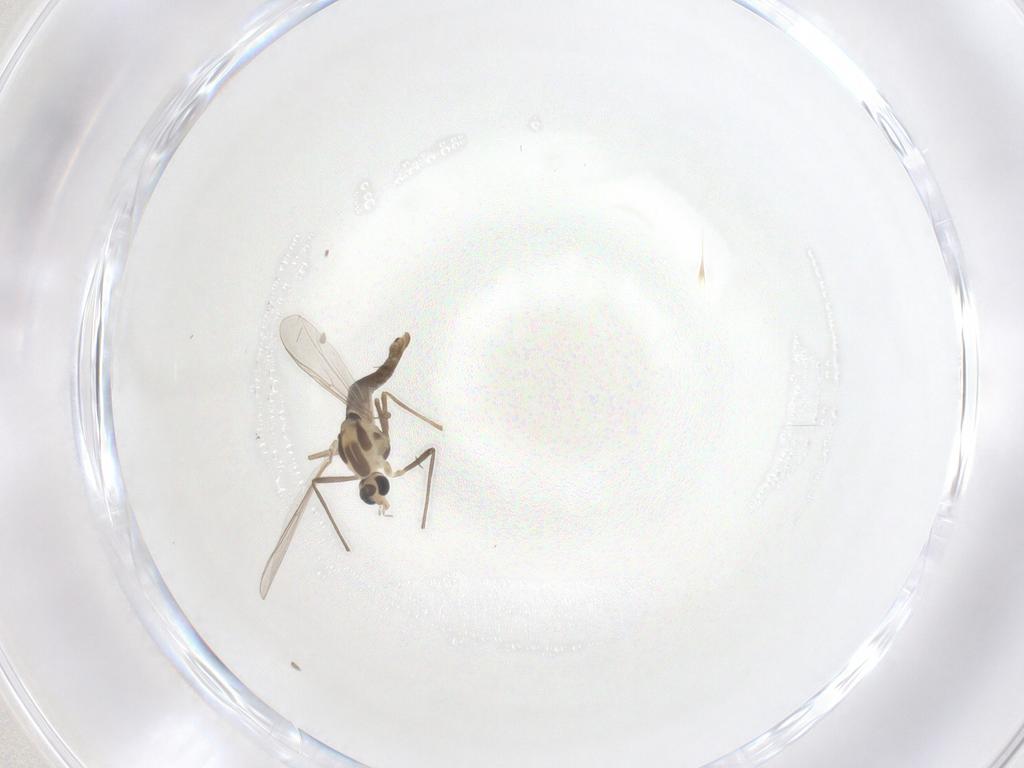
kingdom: Animalia
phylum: Arthropoda
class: Insecta
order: Diptera
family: Chironomidae
